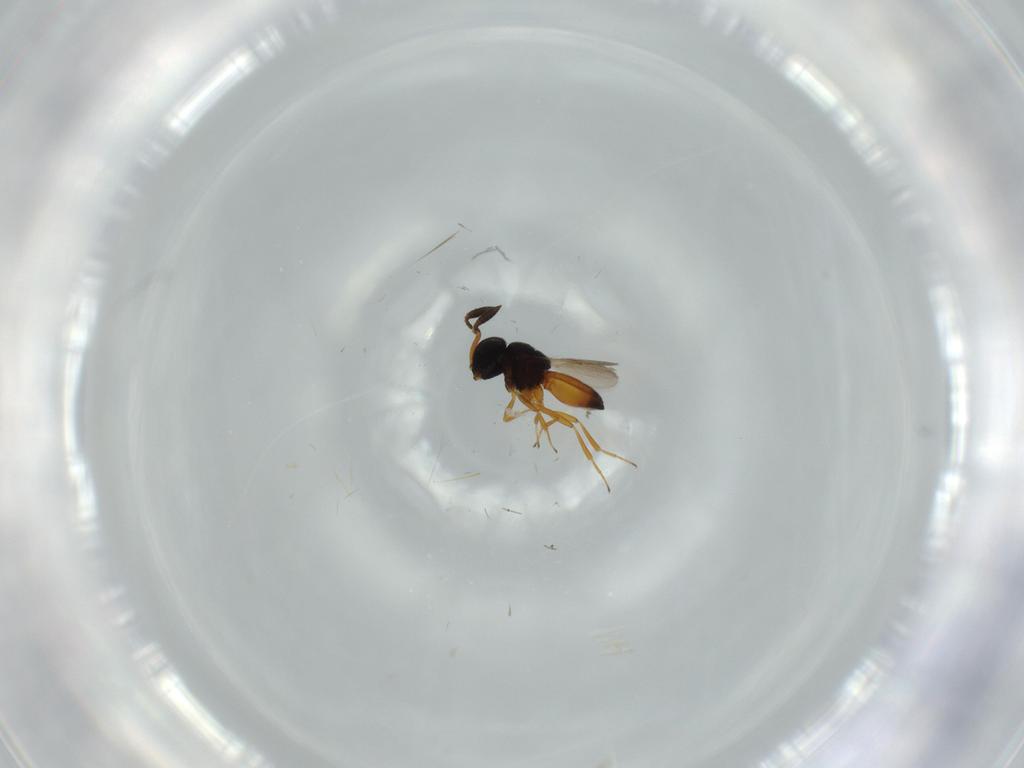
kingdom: Animalia
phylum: Arthropoda
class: Insecta
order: Hymenoptera
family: Scelionidae
